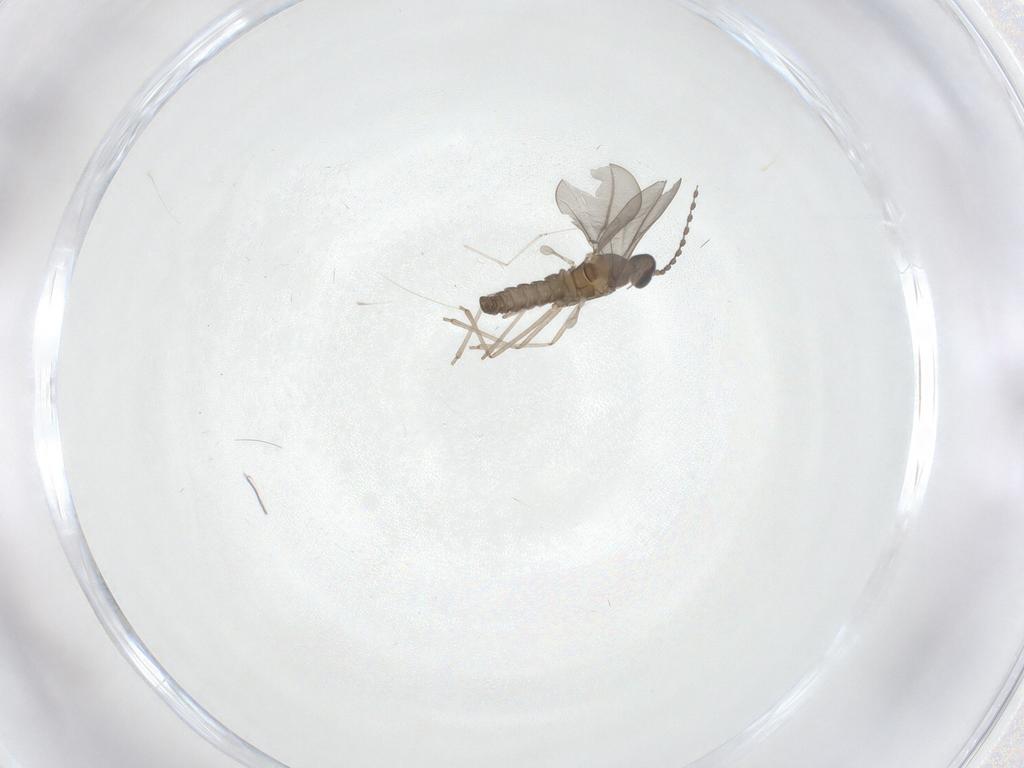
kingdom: Animalia
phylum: Arthropoda
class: Insecta
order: Diptera
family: Cecidomyiidae
